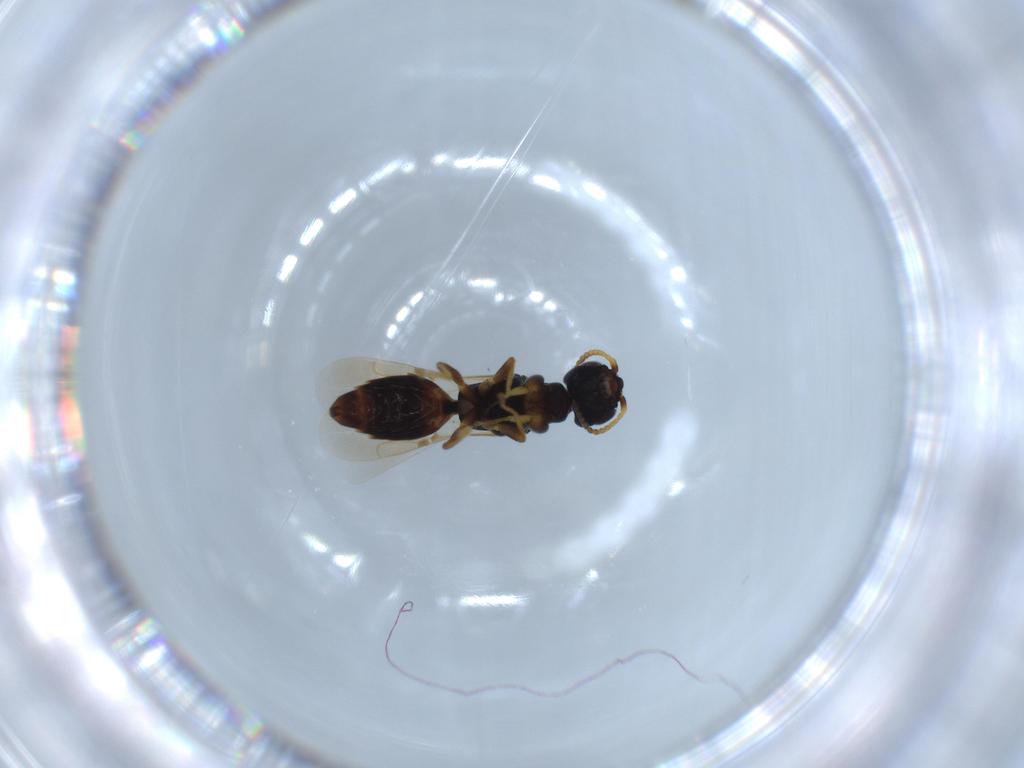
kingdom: Animalia
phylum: Arthropoda
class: Insecta
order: Hymenoptera
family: Bethylidae
